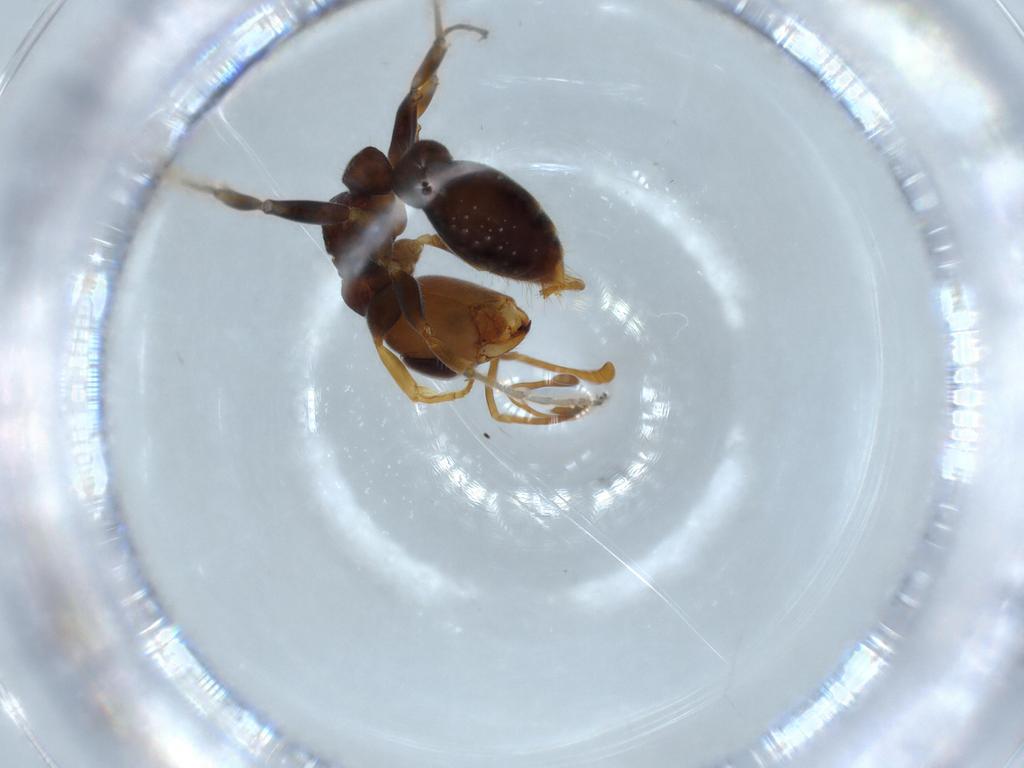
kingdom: Animalia
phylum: Arthropoda
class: Insecta
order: Hymenoptera
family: Formicidae
